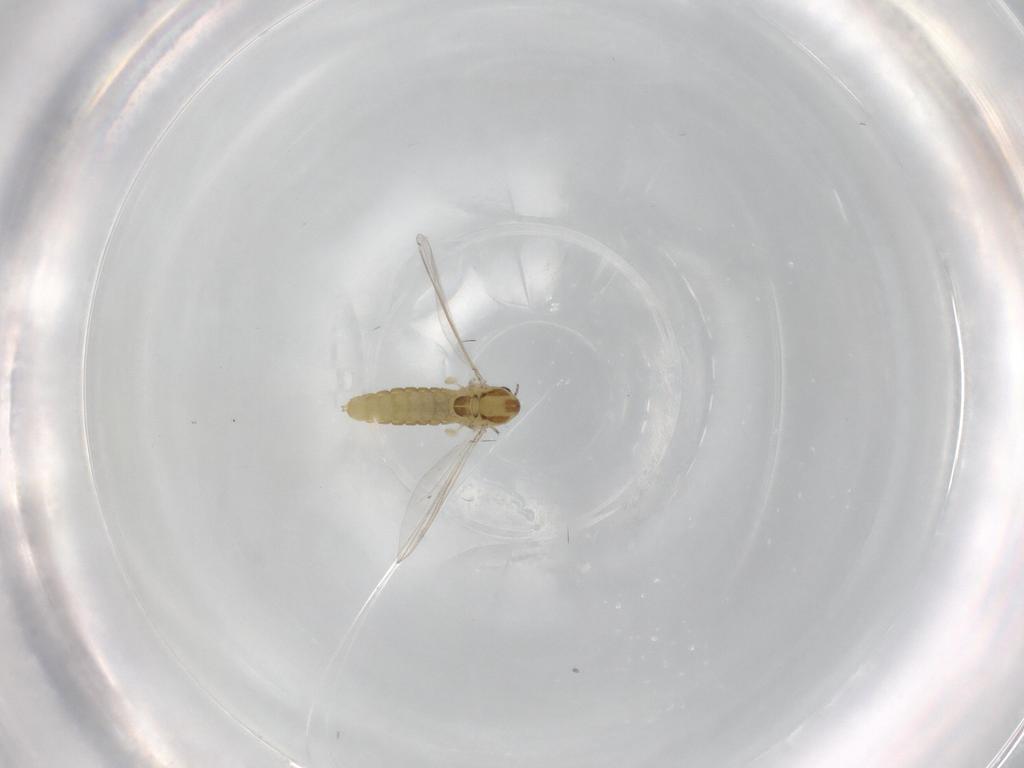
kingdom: Animalia
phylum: Arthropoda
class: Insecta
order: Diptera
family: Chironomidae
